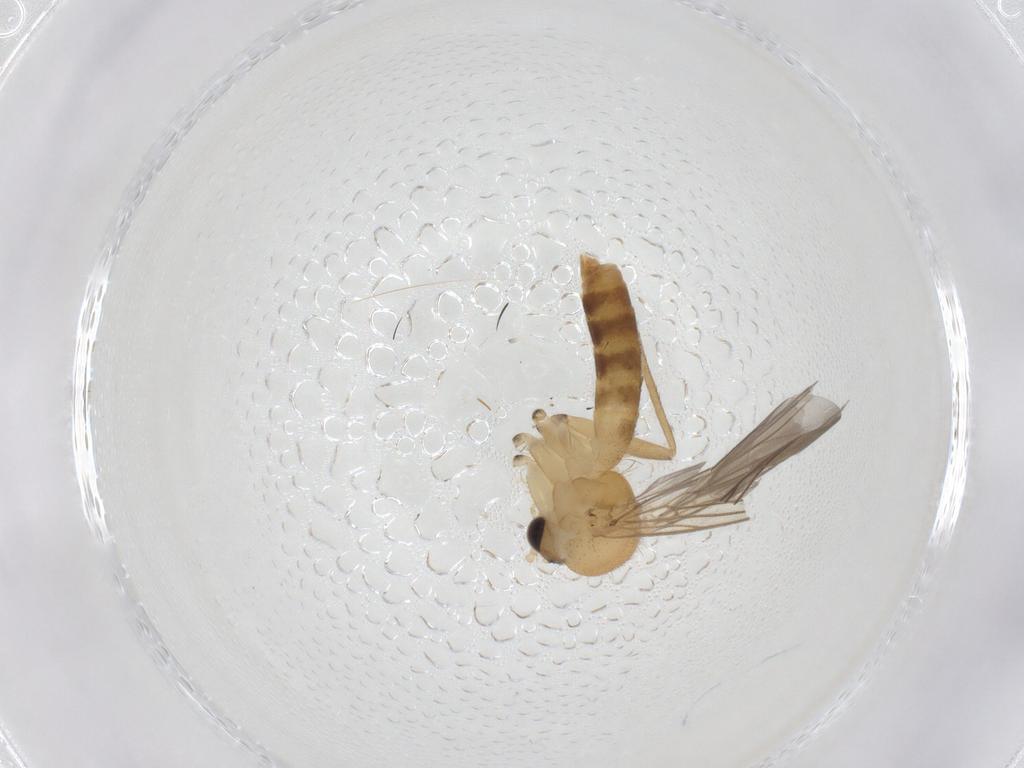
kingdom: Animalia
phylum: Arthropoda
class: Insecta
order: Diptera
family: Mycetophilidae
